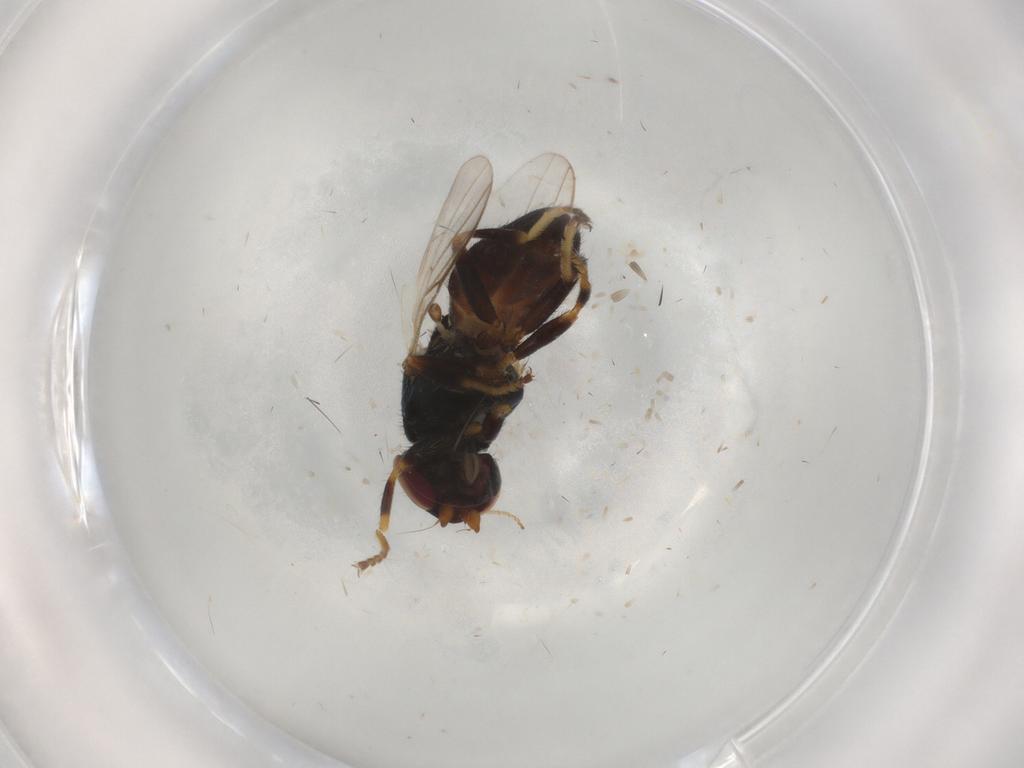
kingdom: Animalia
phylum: Arthropoda
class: Insecta
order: Diptera
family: Chloropidae
